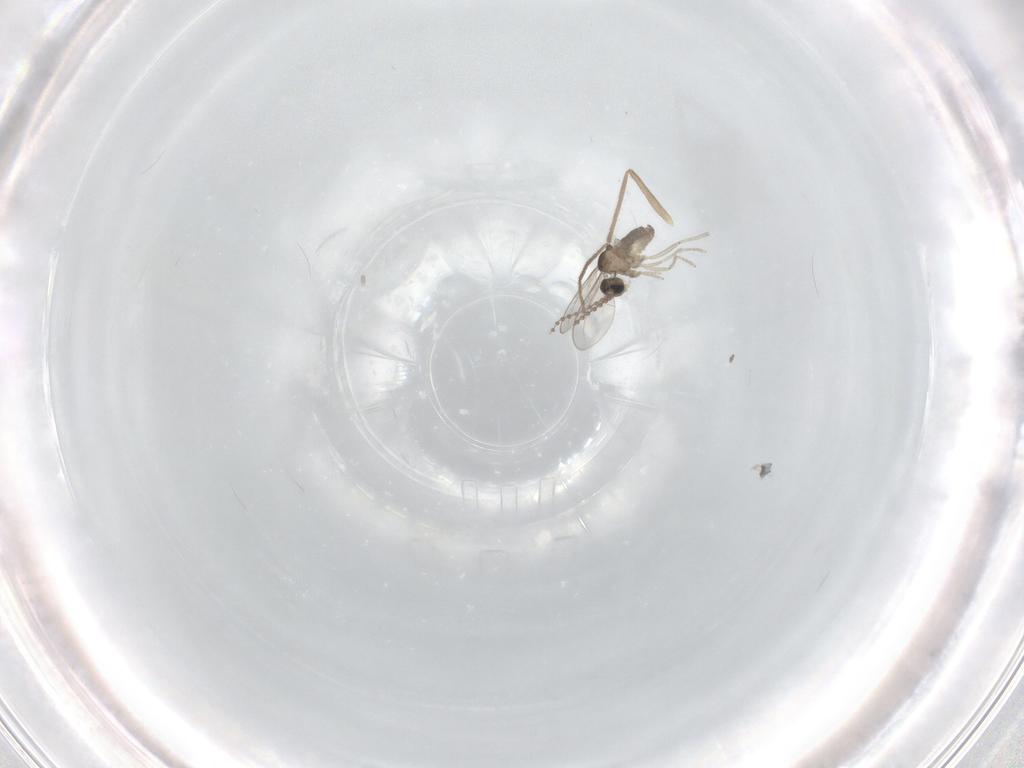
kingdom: Animalia
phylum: Arthropoda
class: Insecta
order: Diptera
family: Cecidomyiidae
